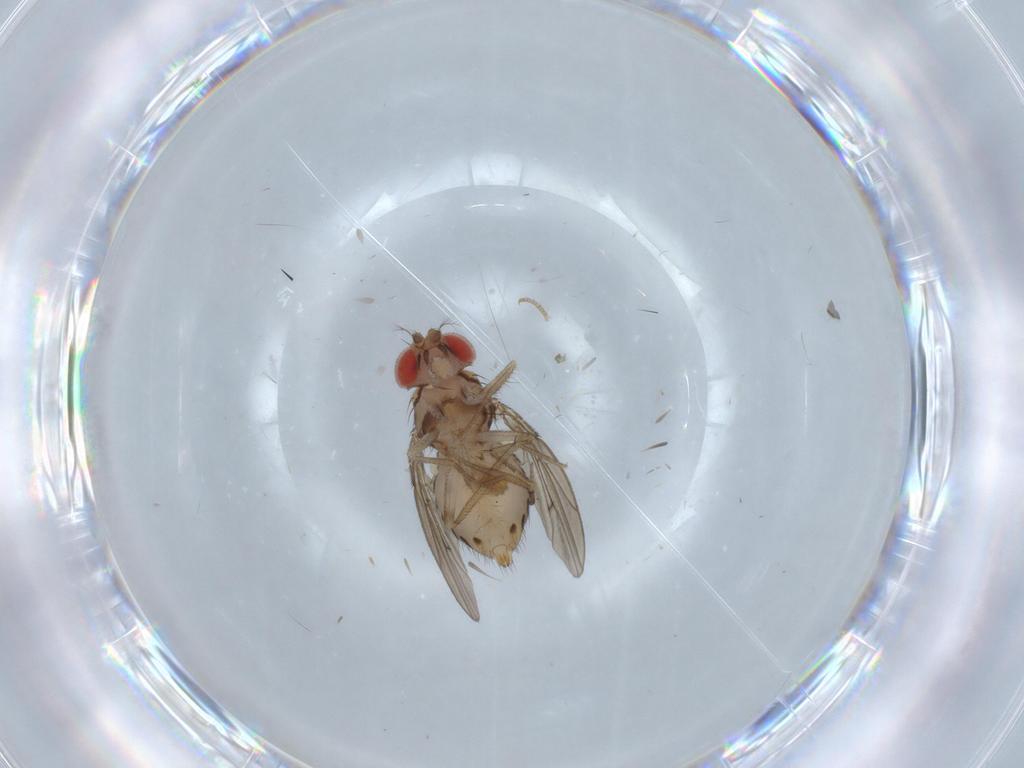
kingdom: Animalia
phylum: Arthropoda
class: Insecta
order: Diptera
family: Drosophilidae
